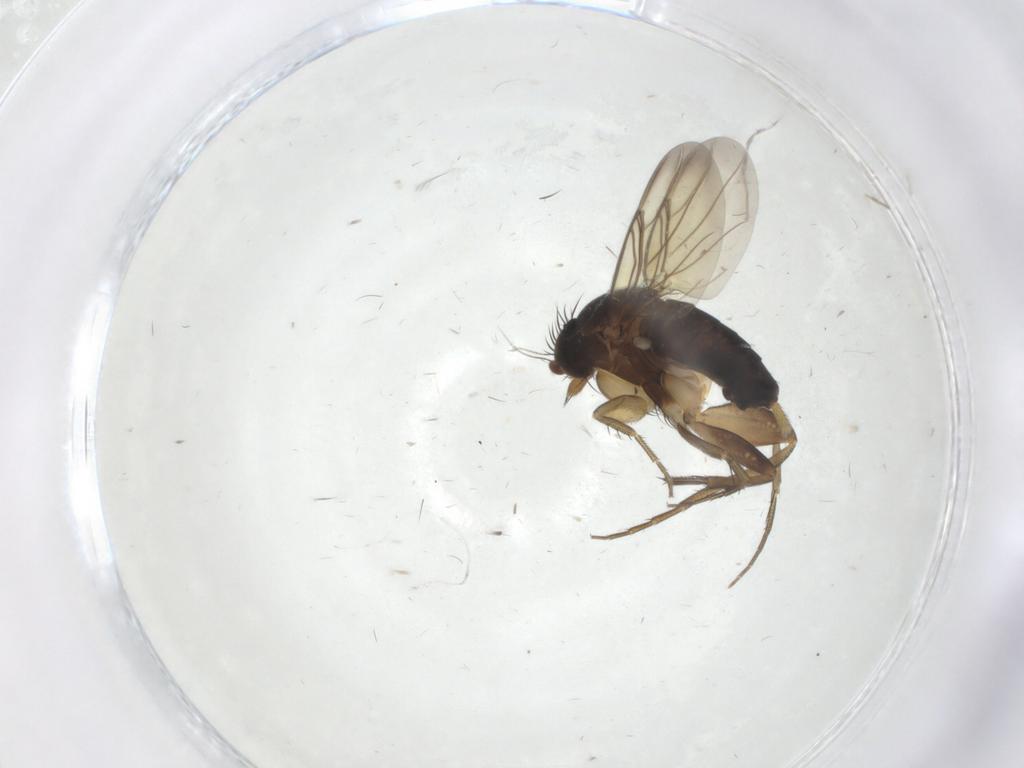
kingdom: Animalia
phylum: Arthropoda
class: Insecta
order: Diptera
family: Phoridae
